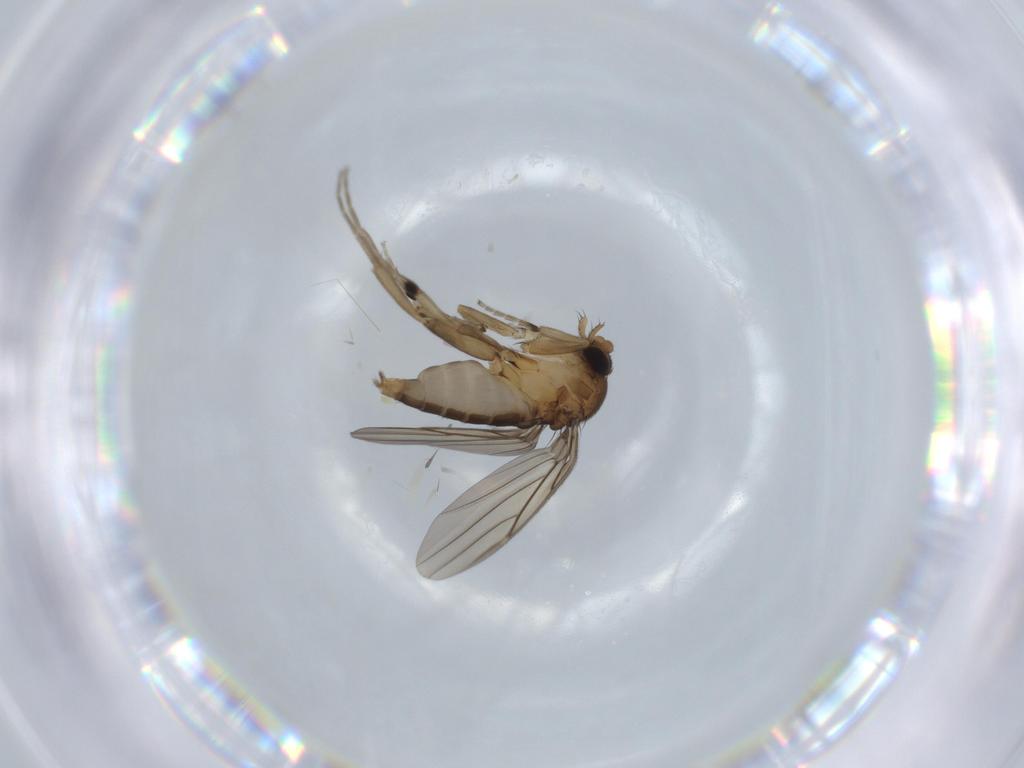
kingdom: Animalia
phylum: Arthropoda
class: Insecta
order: Diptera
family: Phoridae
